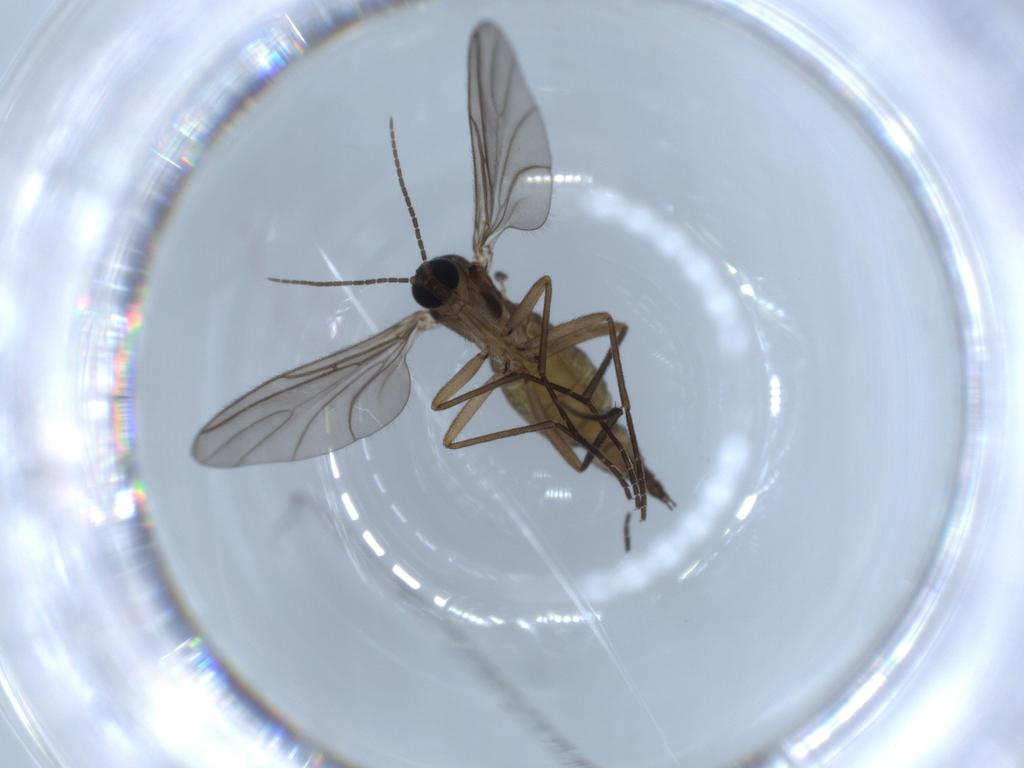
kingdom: Animalia
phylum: Arthropoda
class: Insecta
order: Diptera
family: Sciaridae
